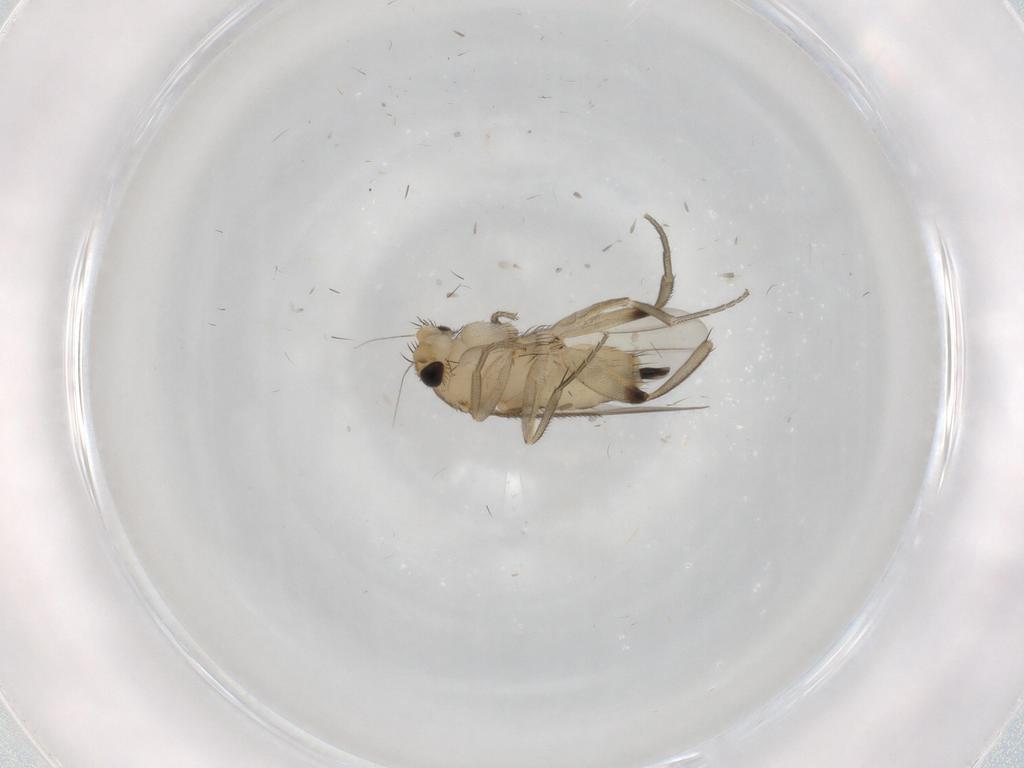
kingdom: Animalia
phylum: Arthropoda
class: Insecta
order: Diptera
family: Phoridae
